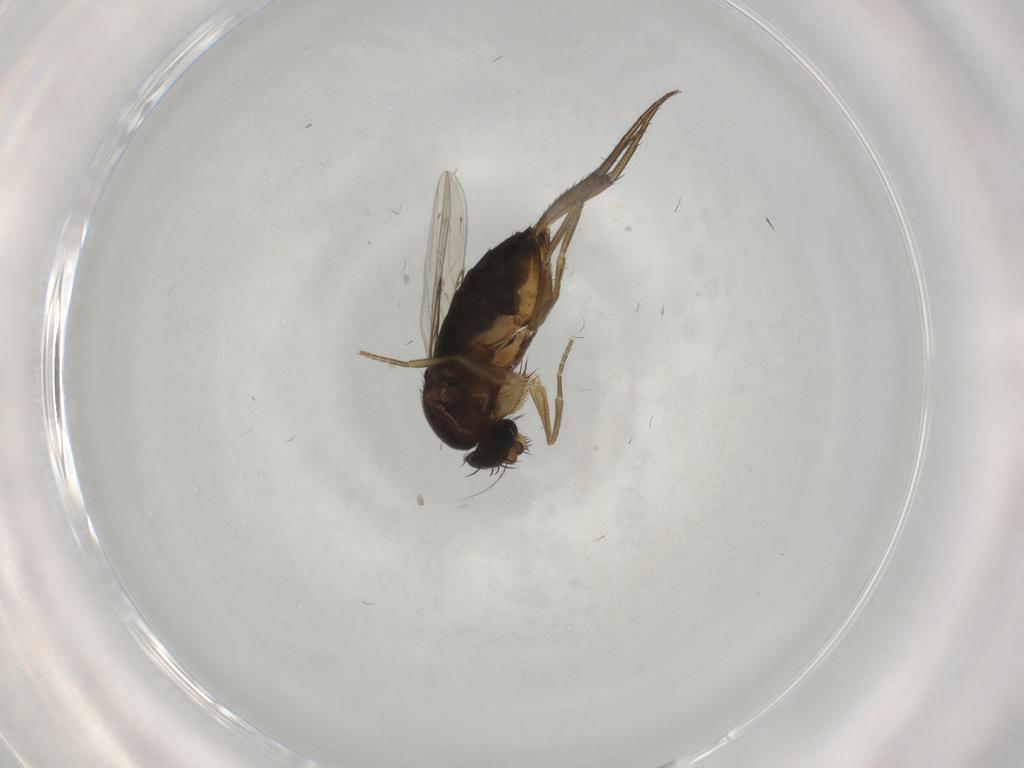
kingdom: Animalia
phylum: Arthropoda
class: Insecta
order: Diptera
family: Phoridae
